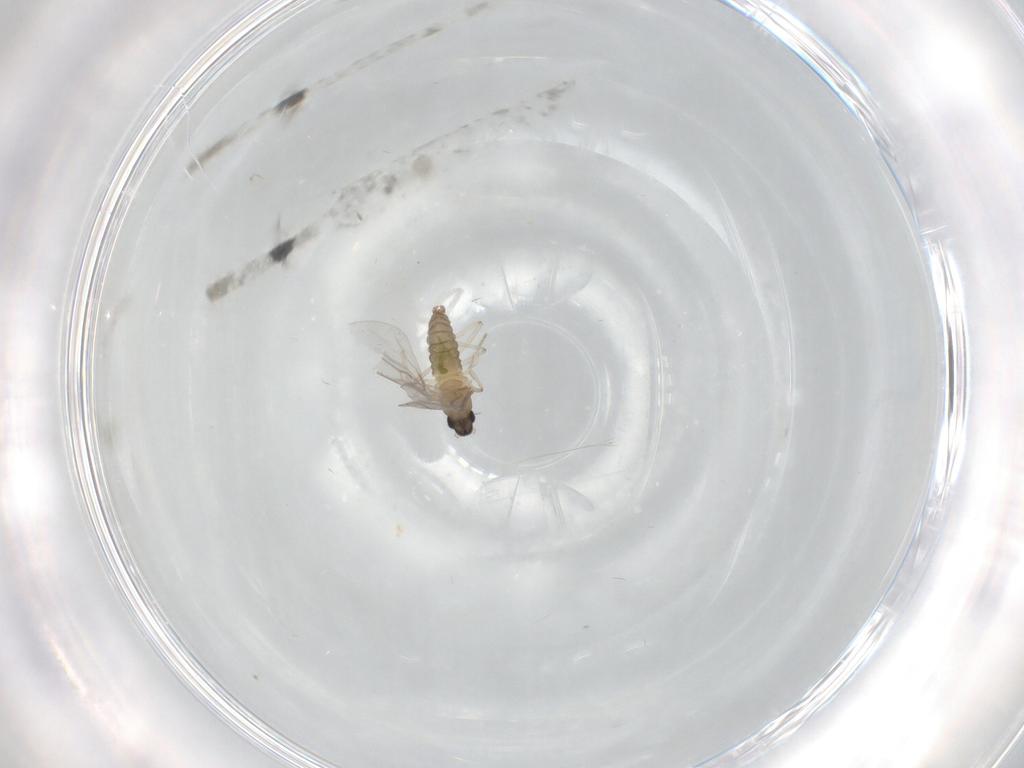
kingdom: Animalia
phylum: Arthropoda
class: Insecta
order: Diptera
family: Cecidomyiidae
